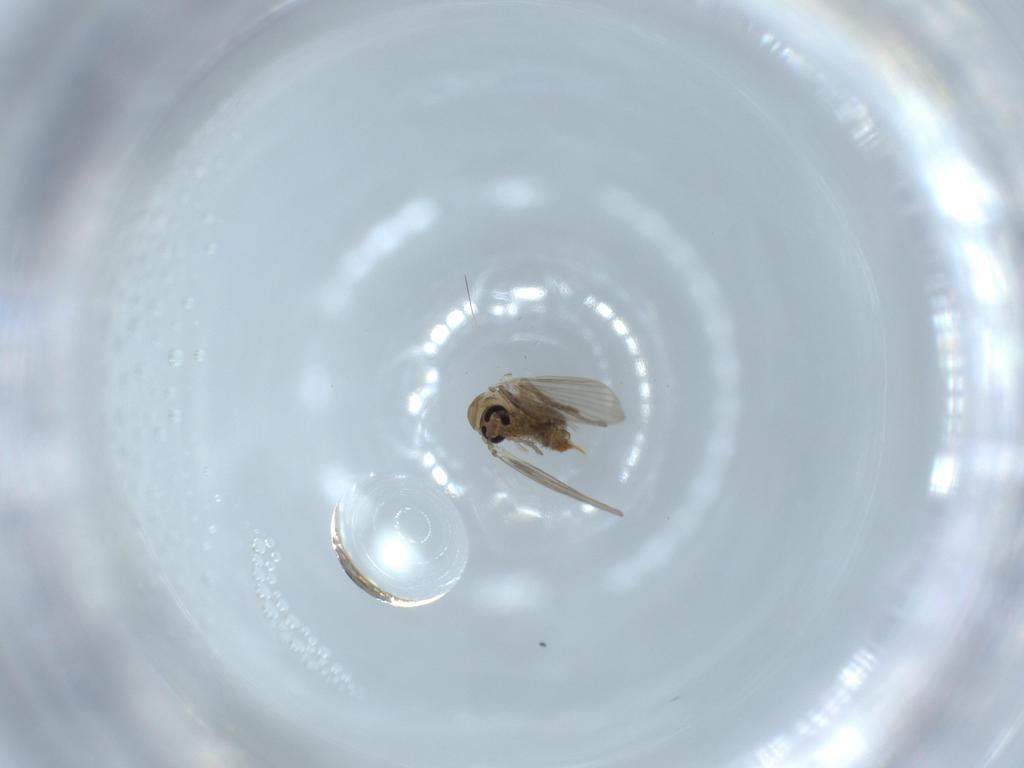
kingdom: Animalia
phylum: Arthropoda
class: Insecta
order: Diptera
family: Psychodidae
